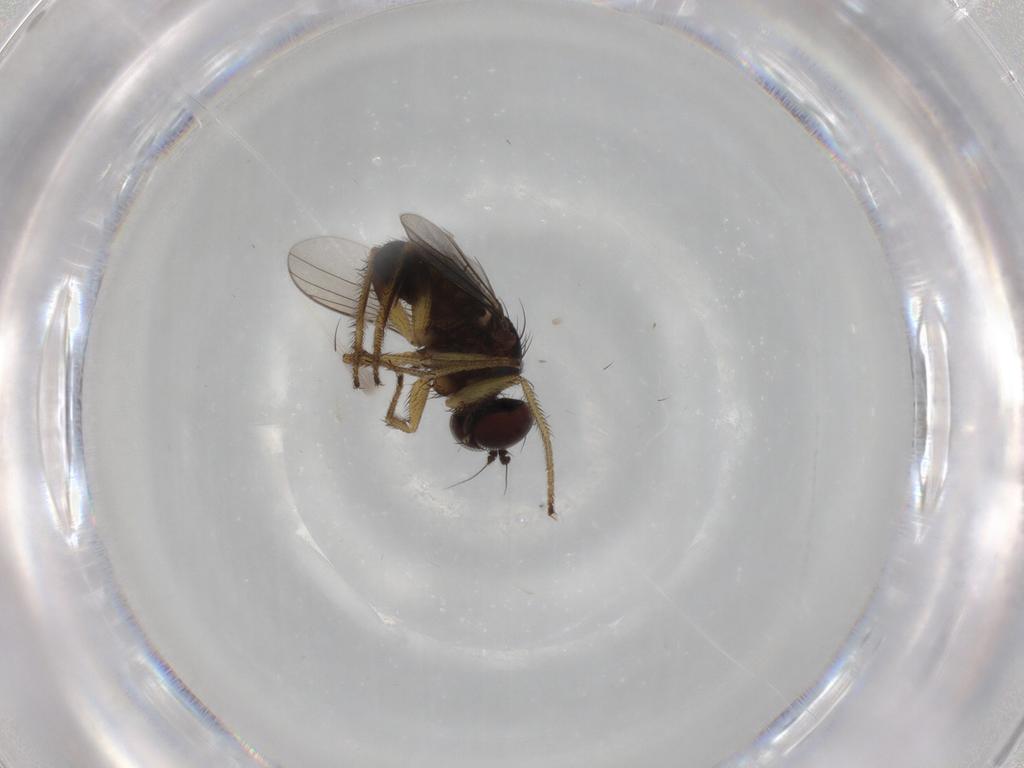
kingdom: Animalia
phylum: Arthropoda
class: Insecta
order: Diptera
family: Dolichopodidae
